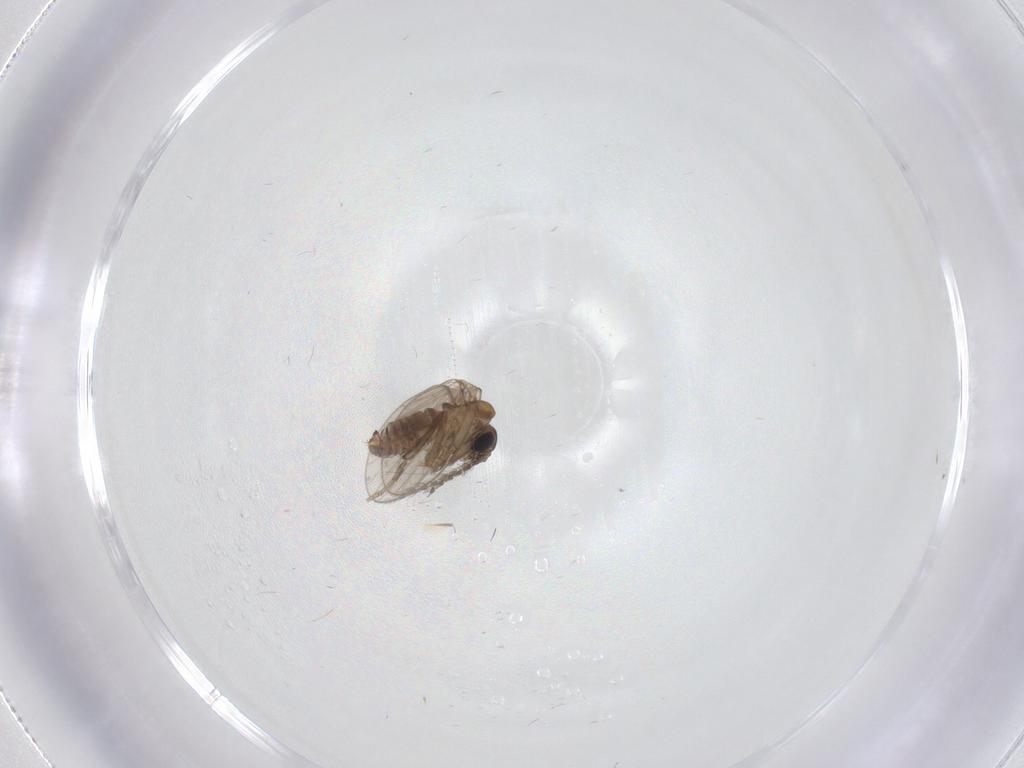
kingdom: Animalia
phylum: Arthropoda
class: Insecta
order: Diptera
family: Psychodidae
